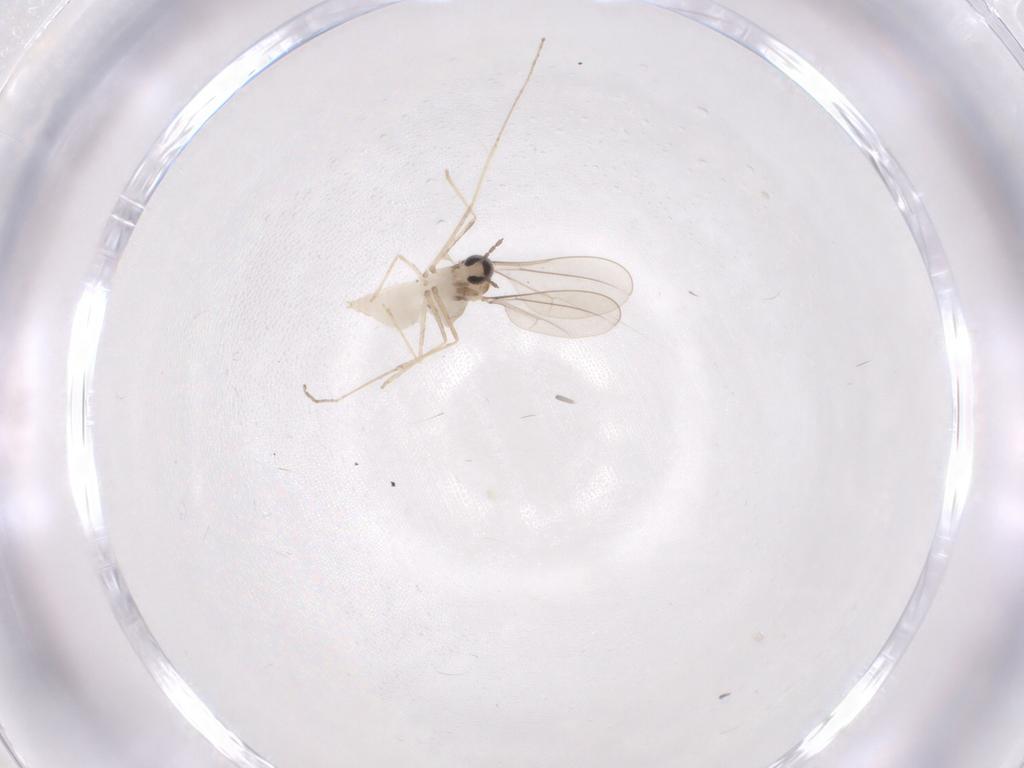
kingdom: Animalia
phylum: Arthropoda
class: Insecta
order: Diptera
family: Cecidomyiidae
